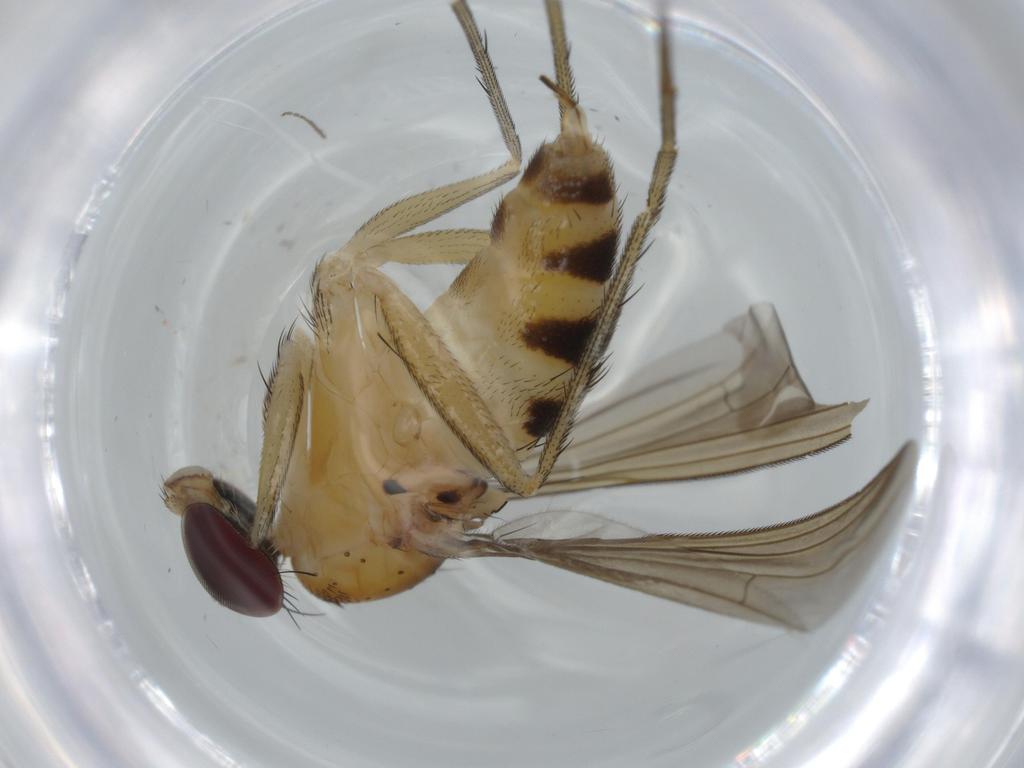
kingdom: Animalia
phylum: Arthropoda
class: Insecta
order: Diptera
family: Dolichopodidae
